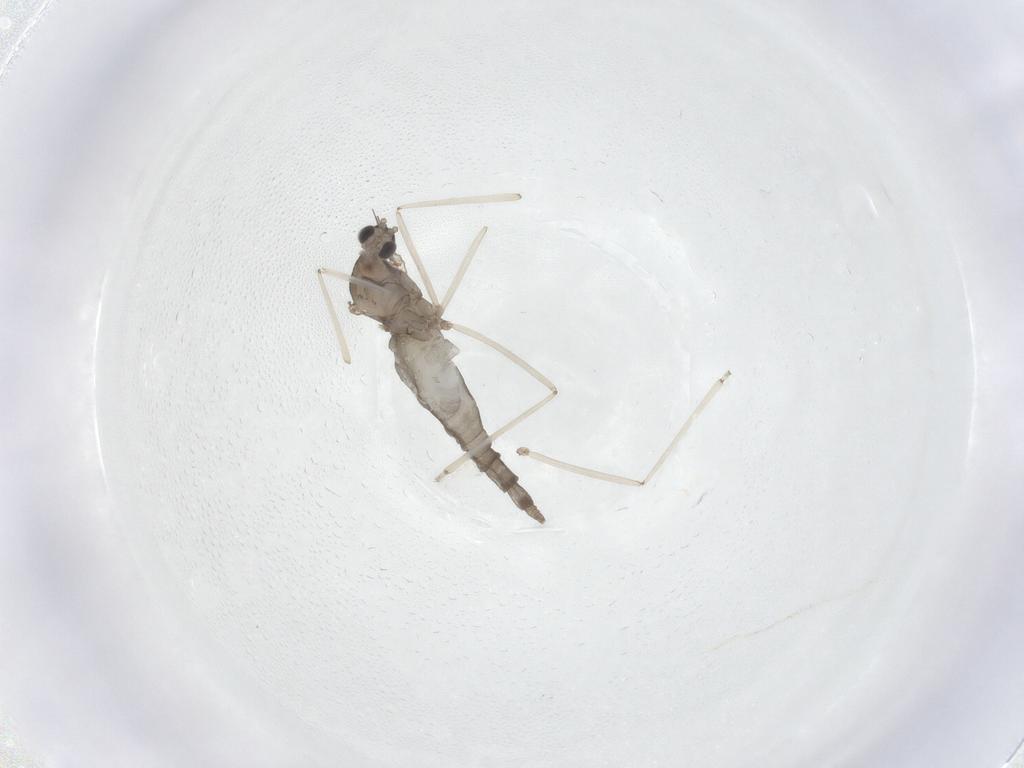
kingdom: Animalia
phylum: Arthropoda
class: Insecta
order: Diptera
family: Cecidomyiidae
